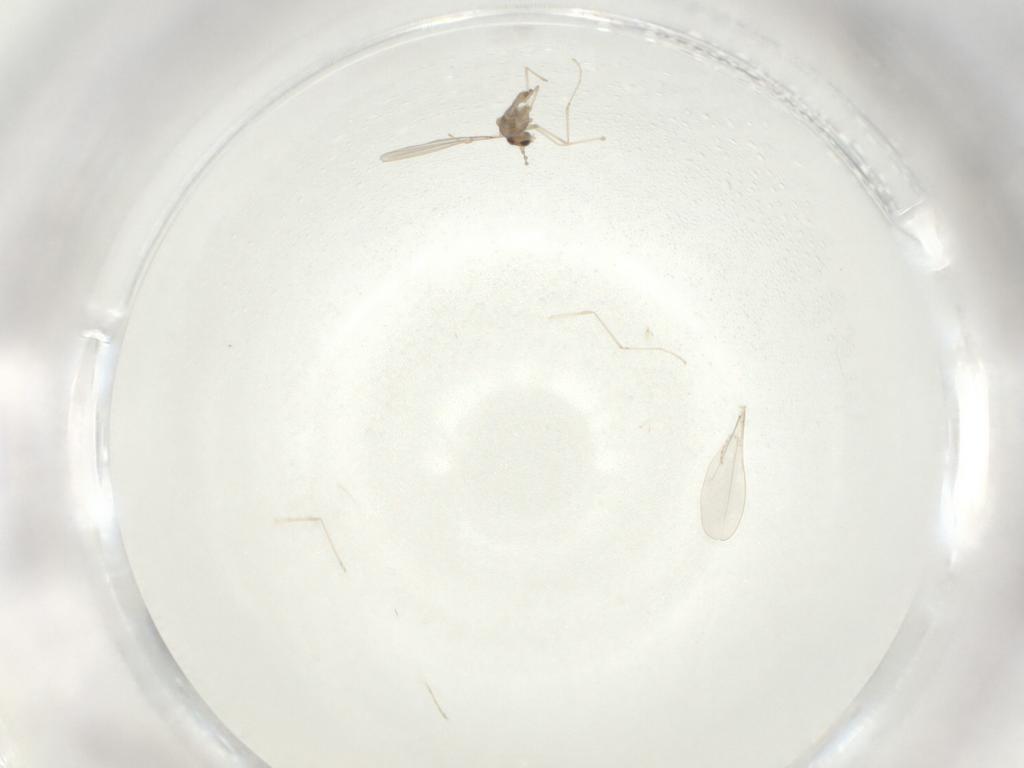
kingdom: Animalia
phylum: Arthropoda
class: Insecta
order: Diptera
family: Cecidomyiidae
